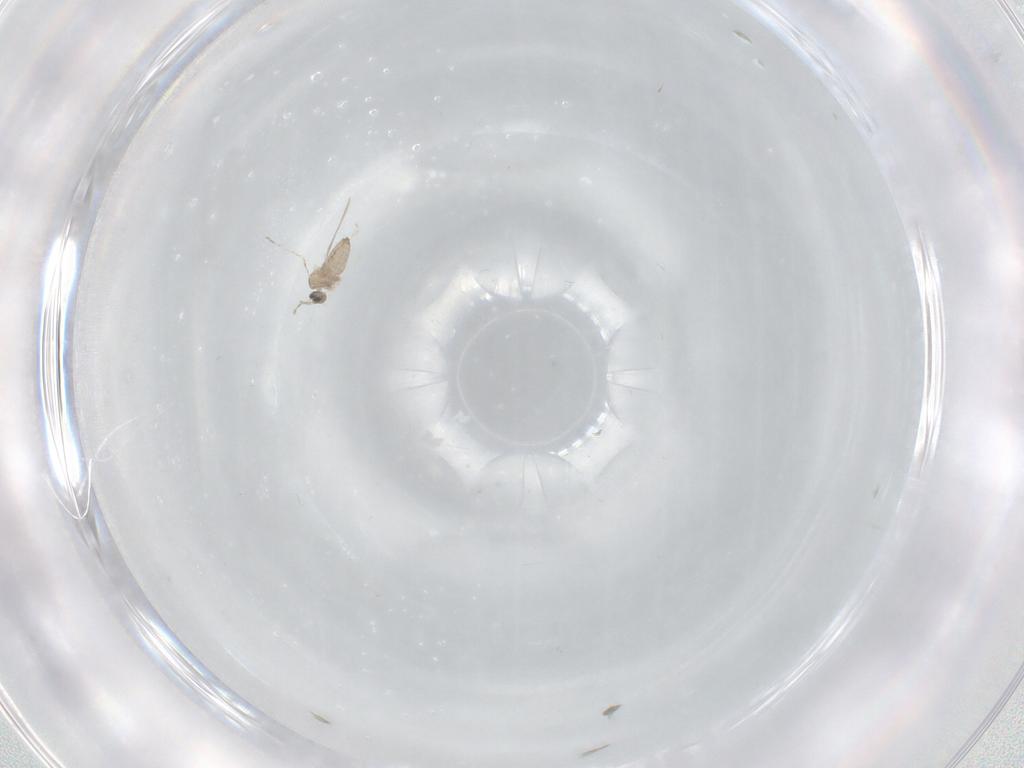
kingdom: Animalia
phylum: Arthropoda
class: Insecta
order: Diptera
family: Cecidomyiidae
